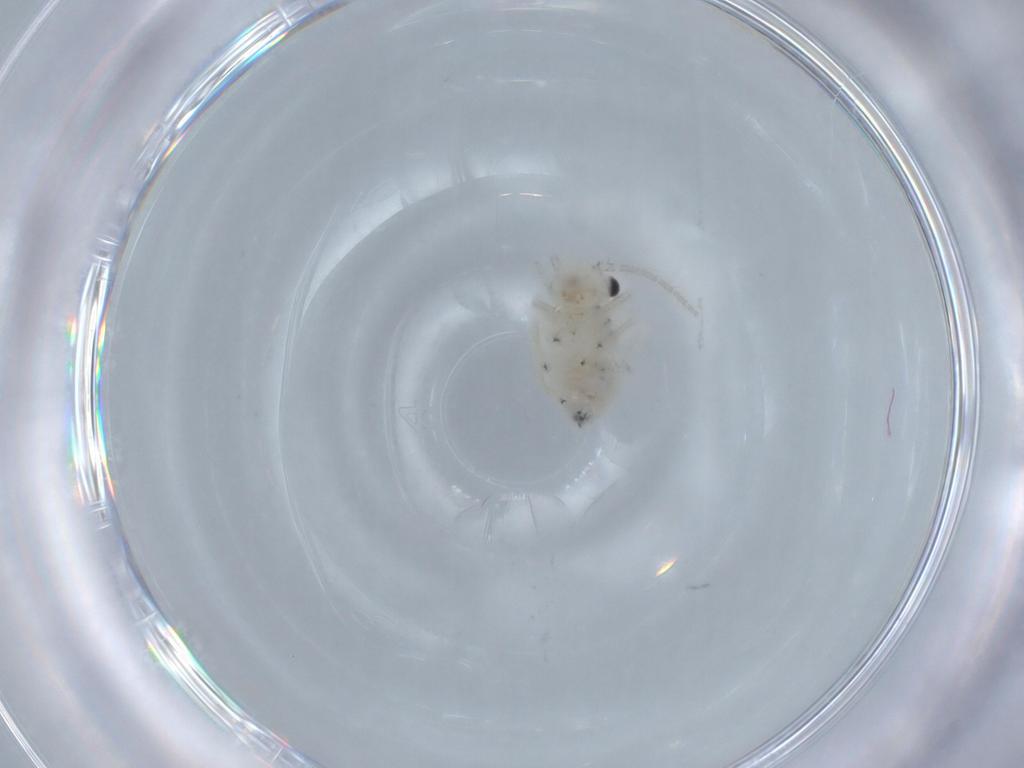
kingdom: Animalia
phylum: Arthropoda
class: Insecta
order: Psocodea
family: Amphipsocidae
